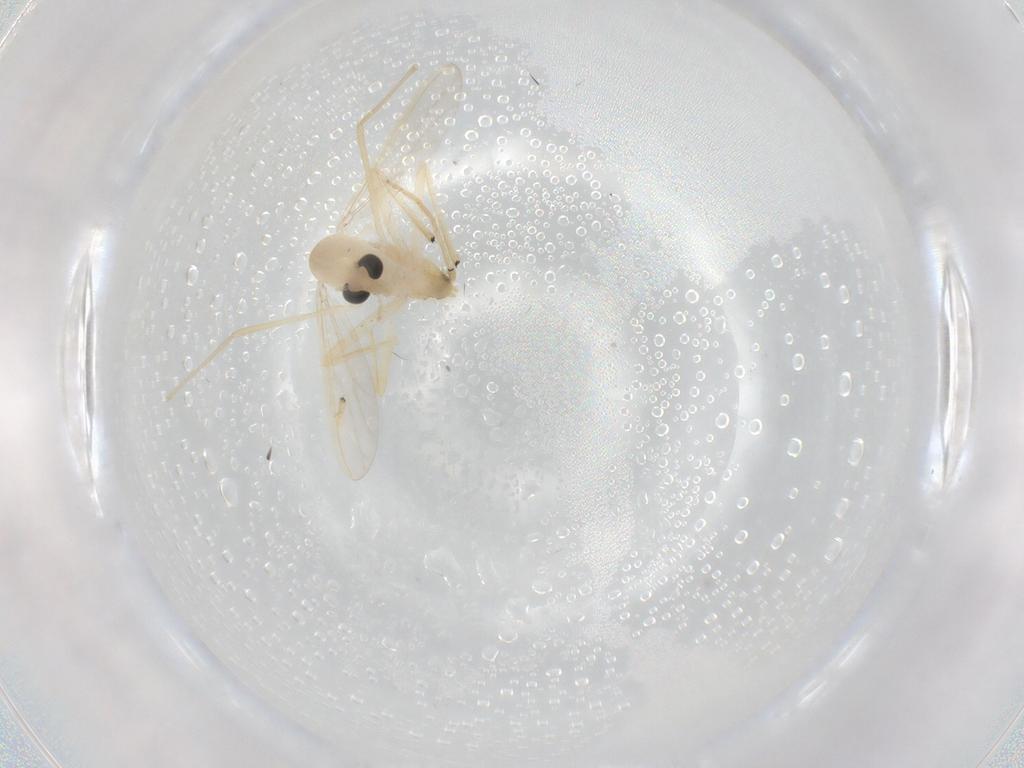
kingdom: Animalia
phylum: Arthropoda
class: Insecta
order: Diptera
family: Chironomidae
